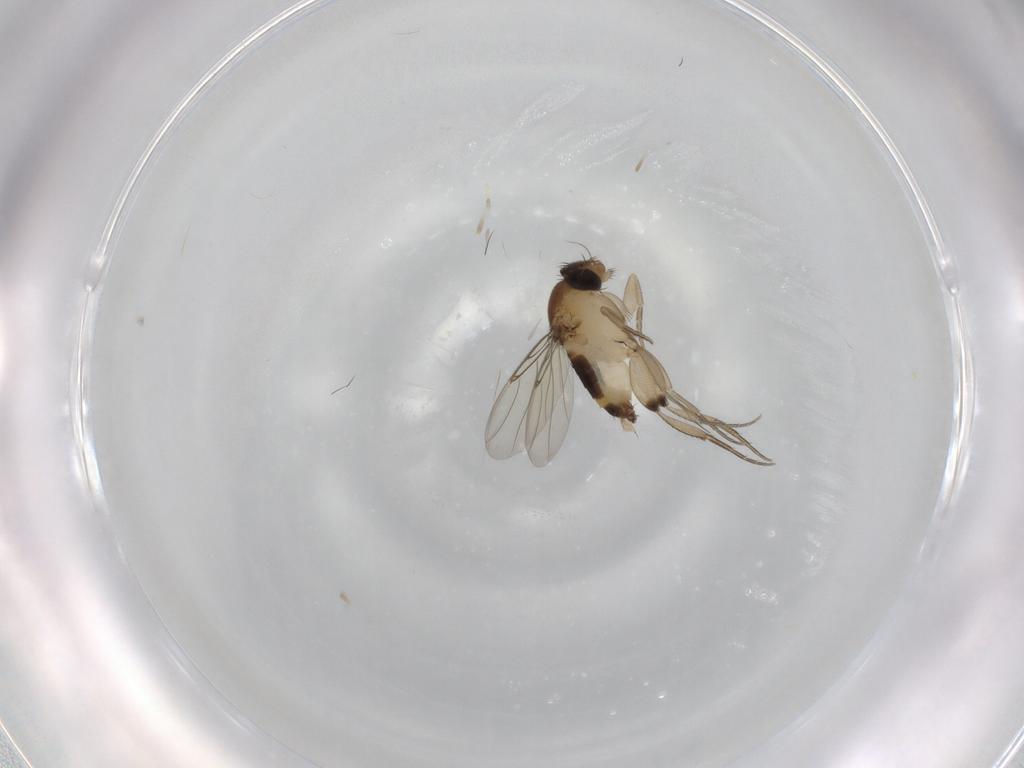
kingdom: Animalia
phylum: Arthropoda
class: Insecta
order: Diptera
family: Phoridae
